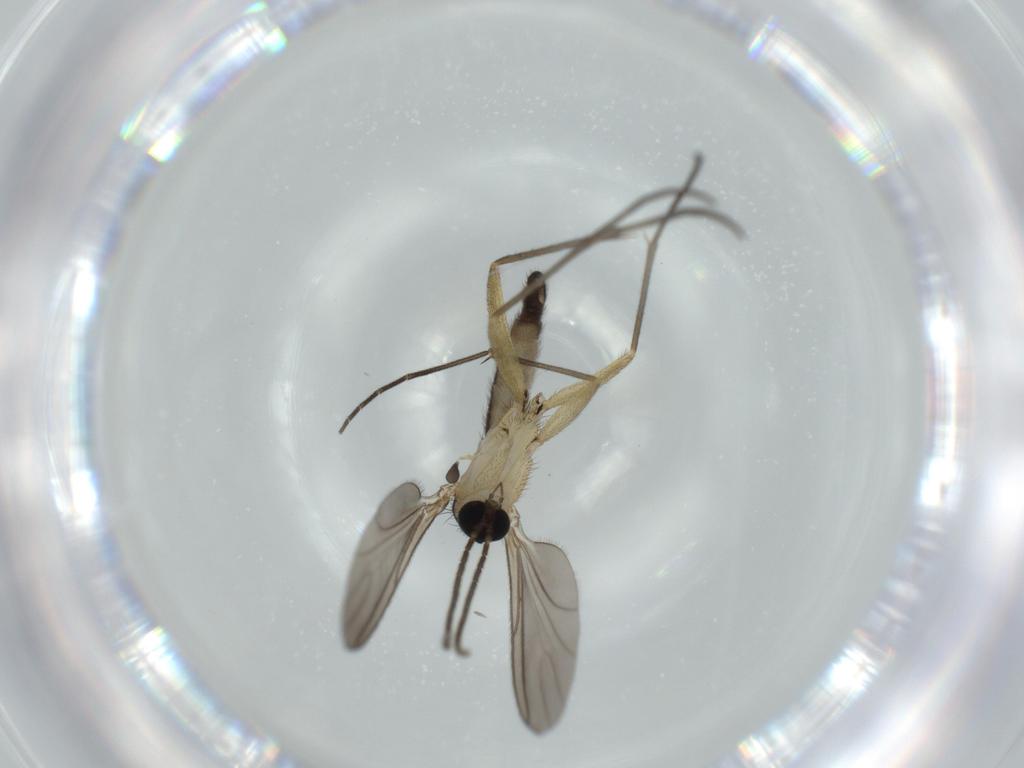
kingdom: Animalia
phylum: Arthropoda
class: Insecta
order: Diptera
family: Sciaridae
